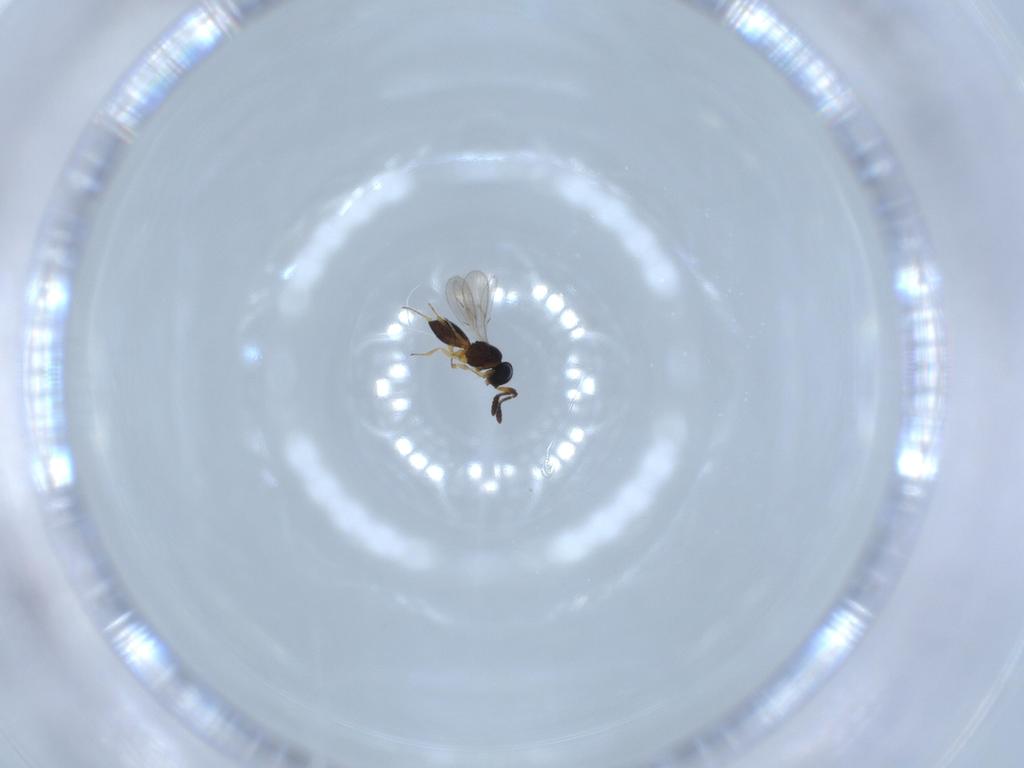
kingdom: Animalia
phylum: Arthropoda
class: Insecta
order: Hymenoptera
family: Scelionidae
